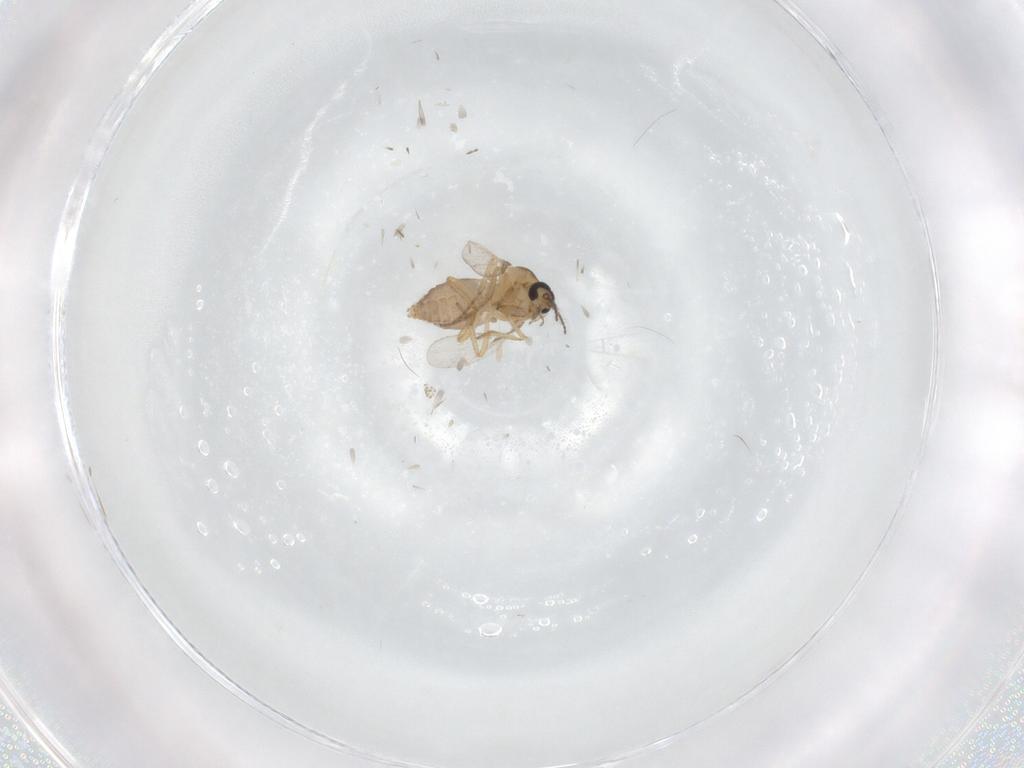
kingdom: Animalia
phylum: Arthropoda
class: Insecta
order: Diptera
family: Ceratopogonidae
